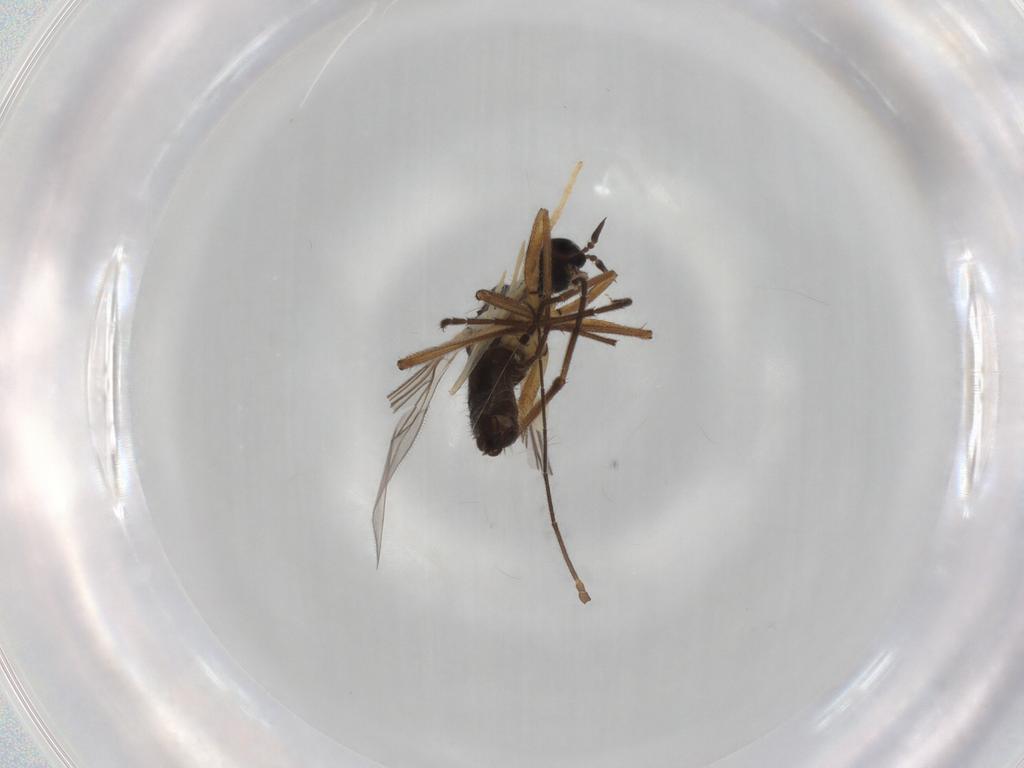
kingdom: Animalia
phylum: Arthropoda
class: Insecta
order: Diptera
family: Empididae
